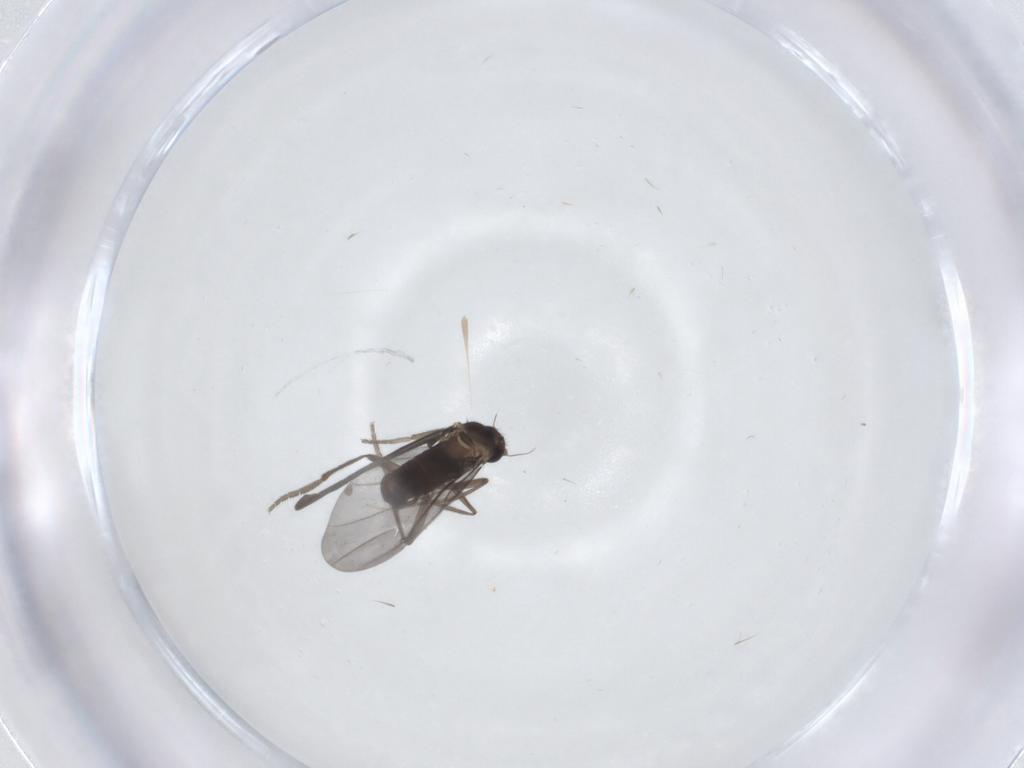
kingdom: Animalia
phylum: Arthropoda
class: Insecta
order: Diptera
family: Phoridae
